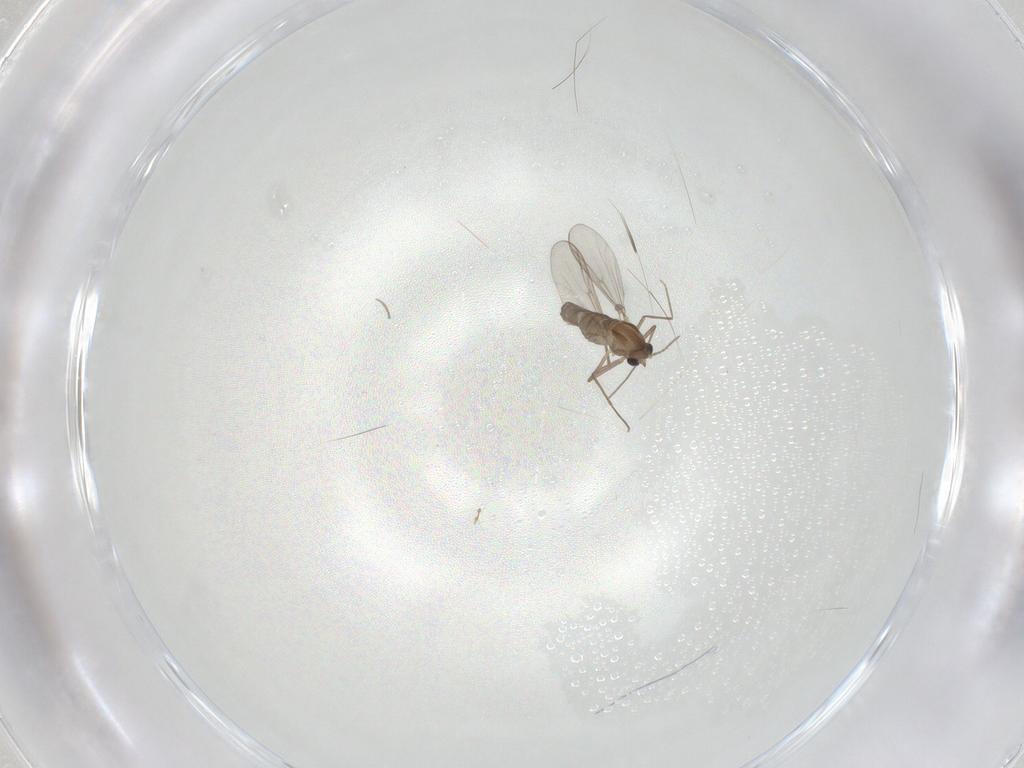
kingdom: Animalia
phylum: Arthropoda
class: Insecta
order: Diptera
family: Chironomidae
